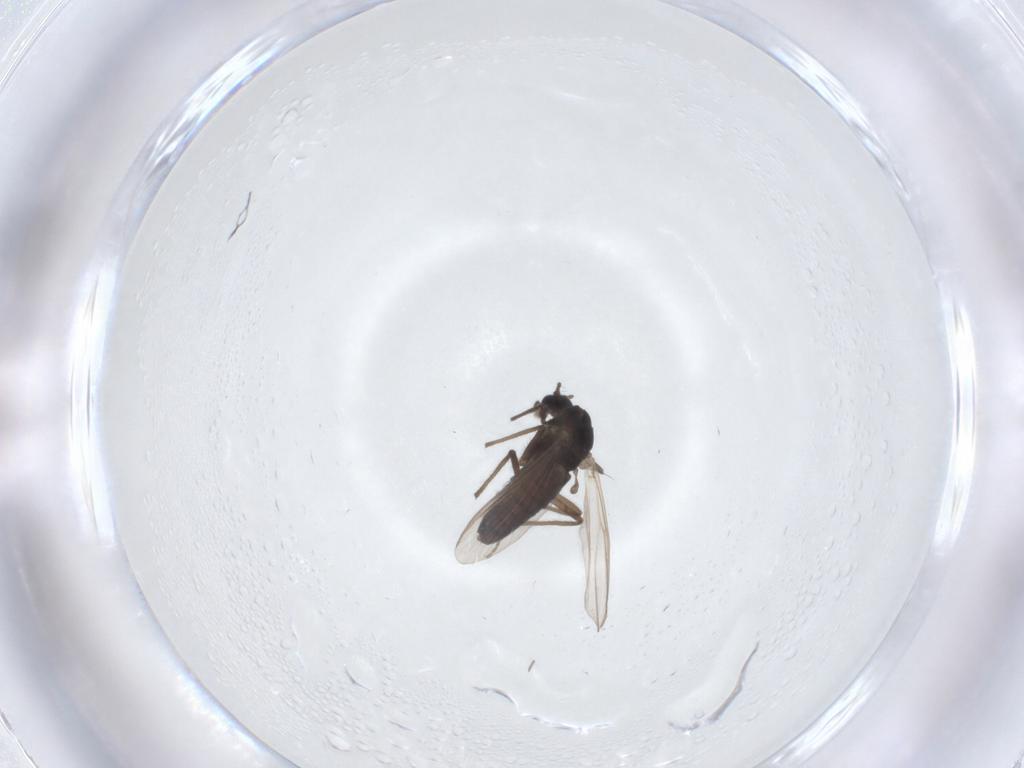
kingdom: Animalia
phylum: Arthropoda
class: Insecta
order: Diptera
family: Chironomidae
